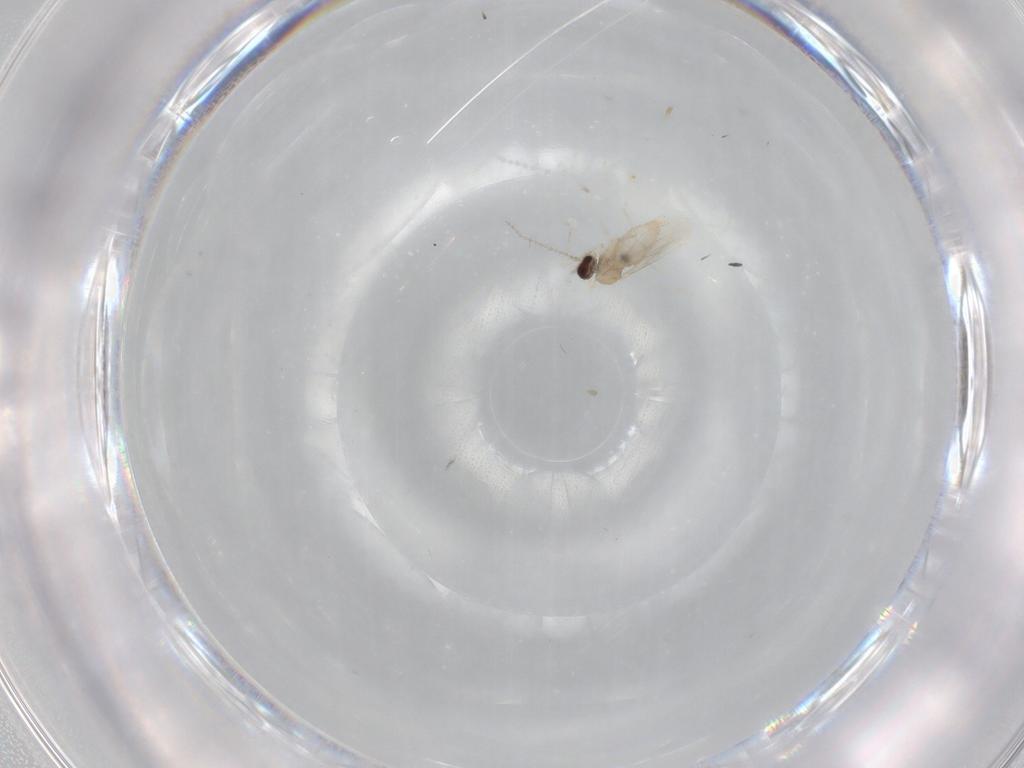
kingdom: Animalia
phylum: Arthropoda
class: Insecta
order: Diptera
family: Cecidomyiidae
